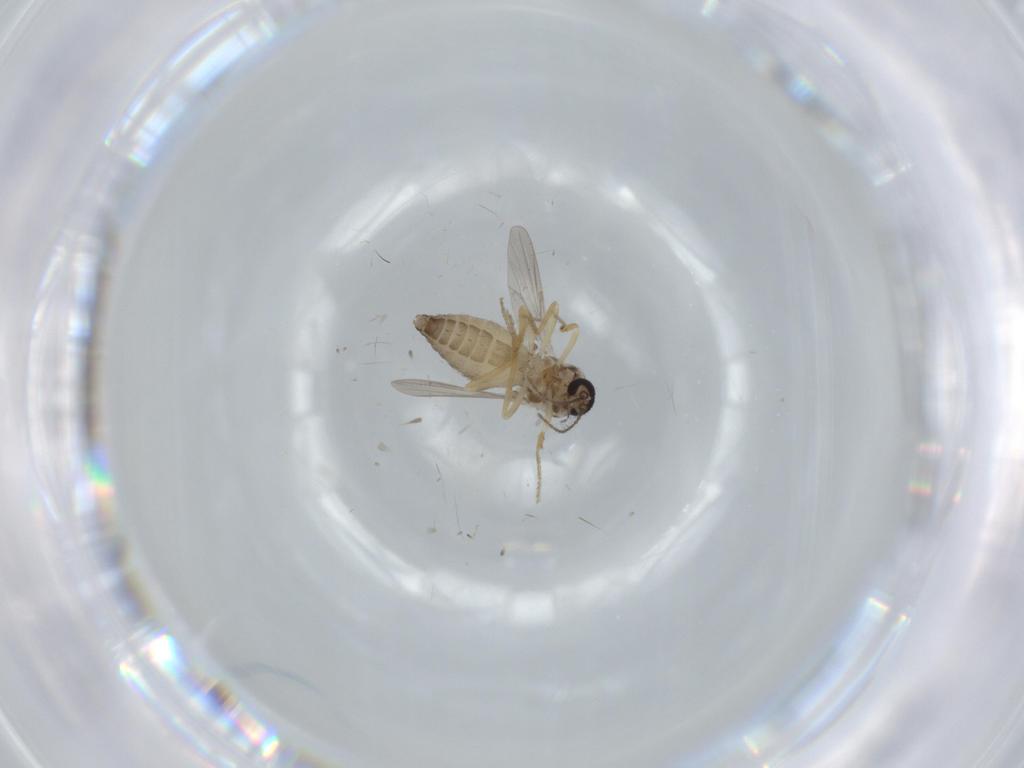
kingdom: Animalia
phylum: Arthropoda
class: Insecta
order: Diptera
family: Ceratopogonidae
